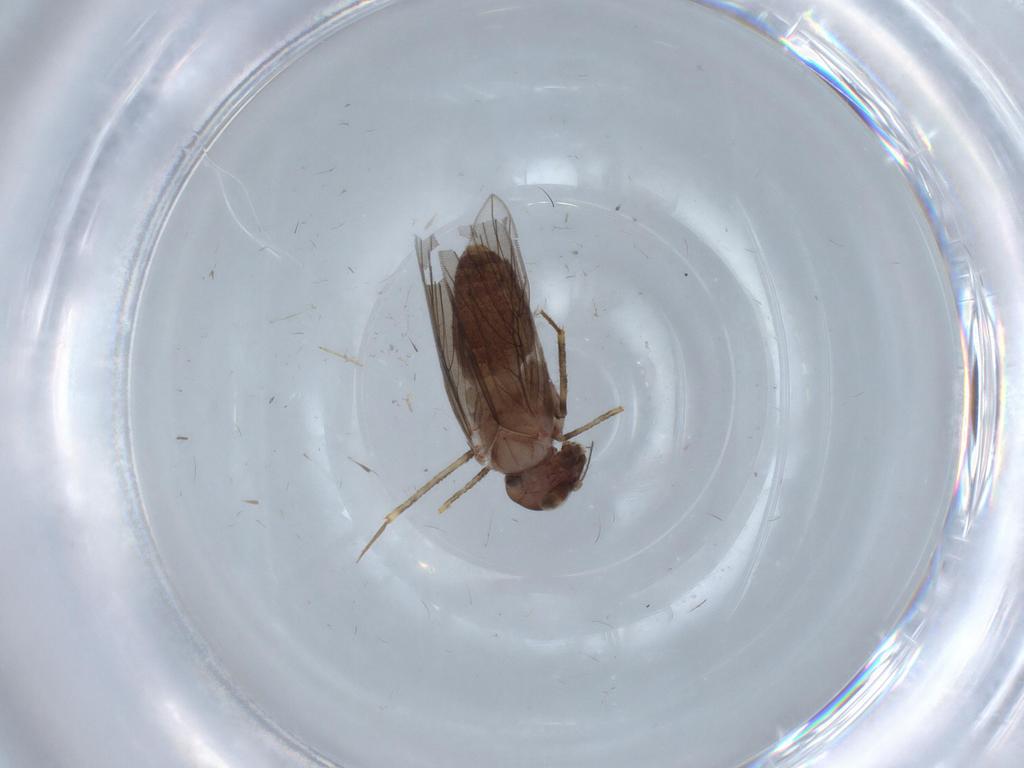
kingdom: Animalia
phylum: Arthropoda
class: Insecta
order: Psocodea
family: Lepidopsocidae
